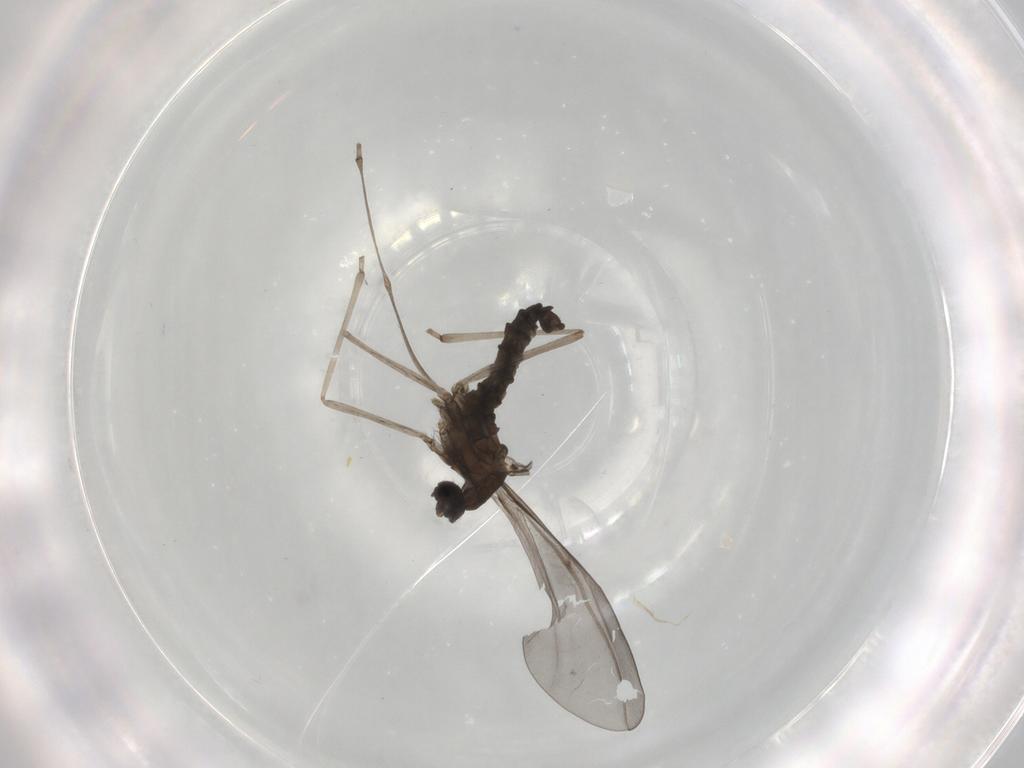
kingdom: Animalia
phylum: Arthropoda
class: Insecta
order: Diptera
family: Cecidomyiidae
